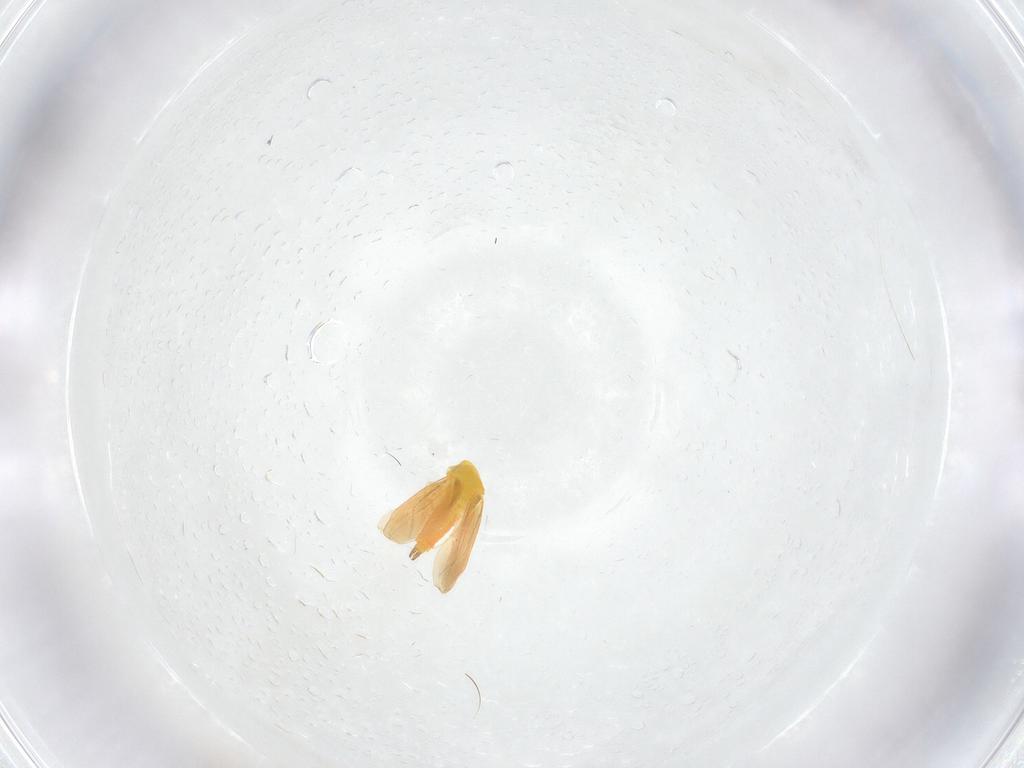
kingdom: Animalia
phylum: Arthropoda
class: Insecta
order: Hemiptera
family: Aleyrodidae
